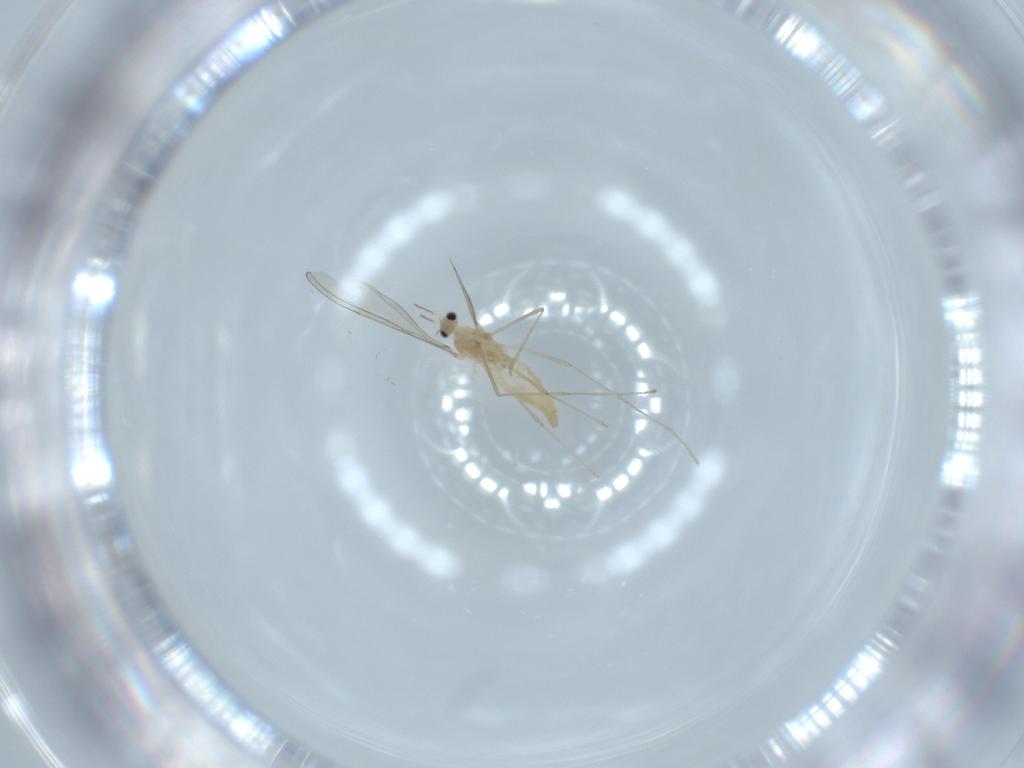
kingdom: Animalia
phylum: Arthropoda
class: Insecta
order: Diptera
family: Cecidomyiidae
